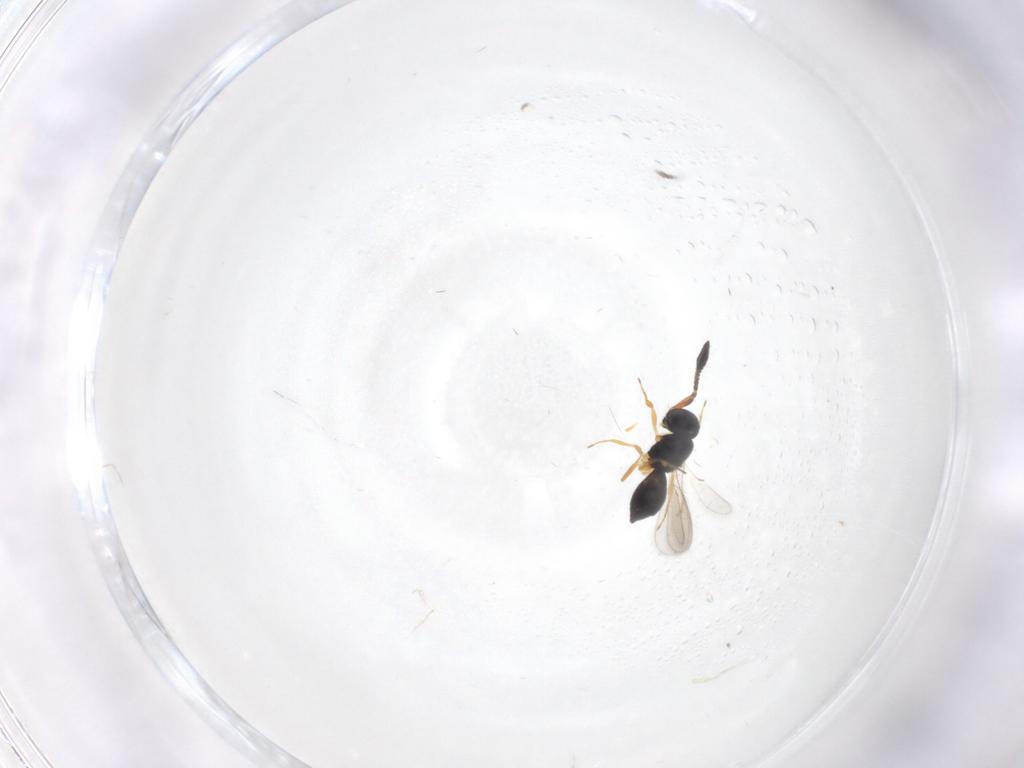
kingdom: Animalia
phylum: Arthropoda
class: Insecta
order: Hymenoptera
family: Scelionidae
